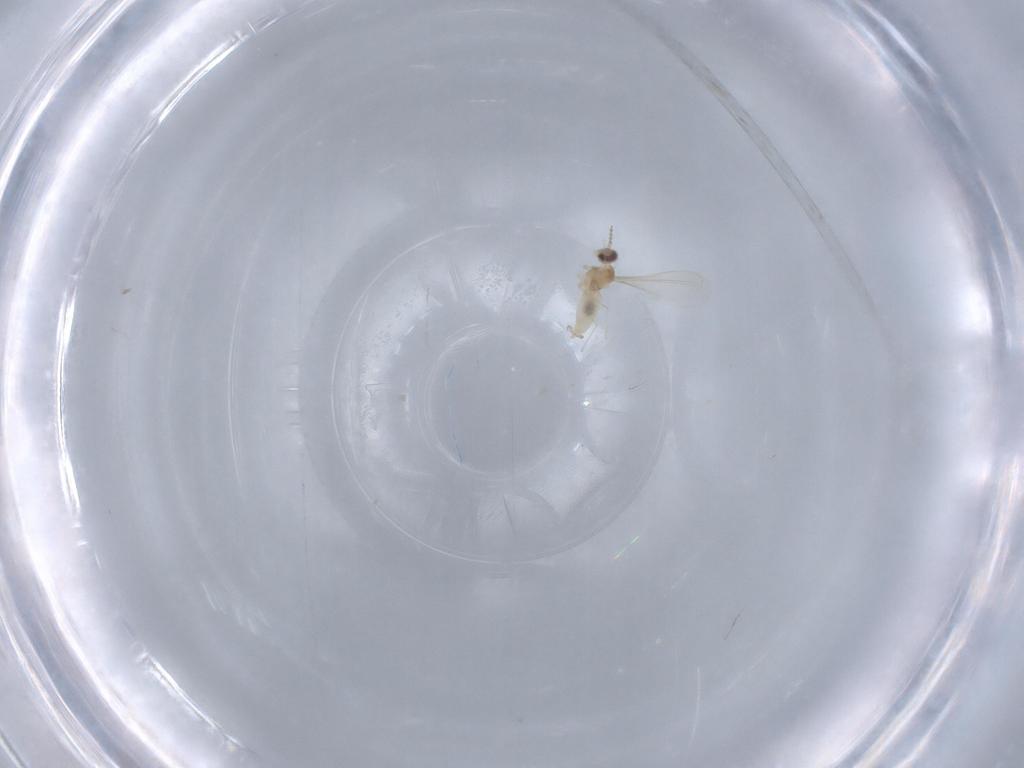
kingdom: Animalia
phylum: Arthropoda
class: Insecta
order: Diptera
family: Chloropidae
